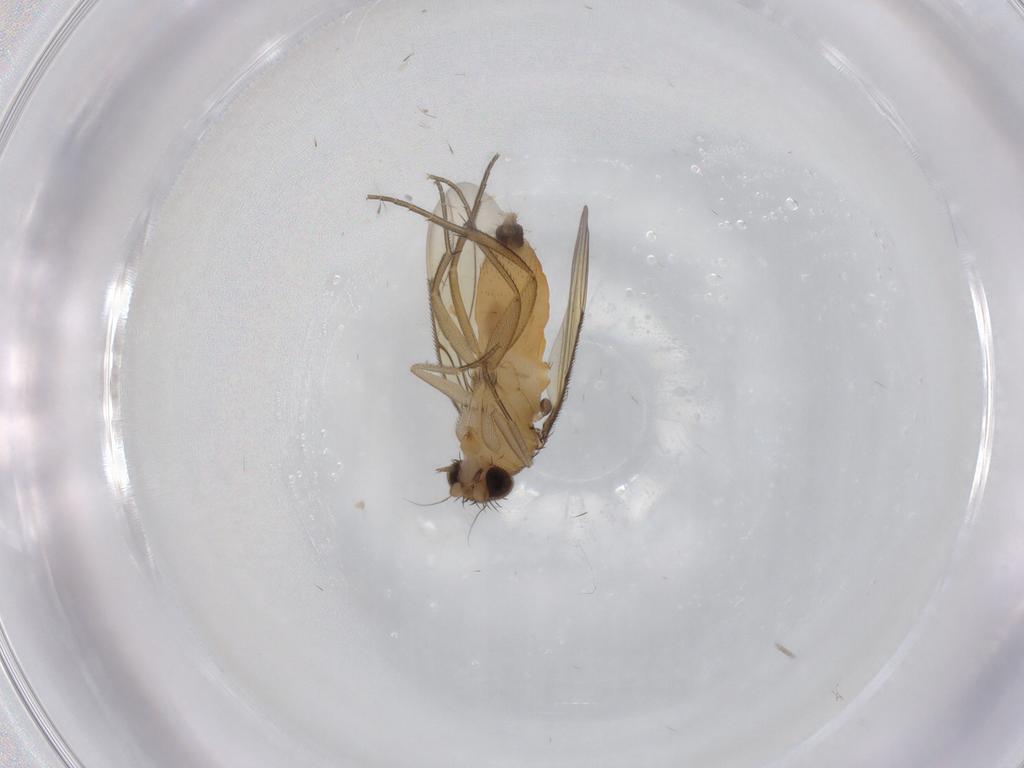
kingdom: Animalia
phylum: Arthropoda
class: Insecta
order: Diptera
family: Phoridae
